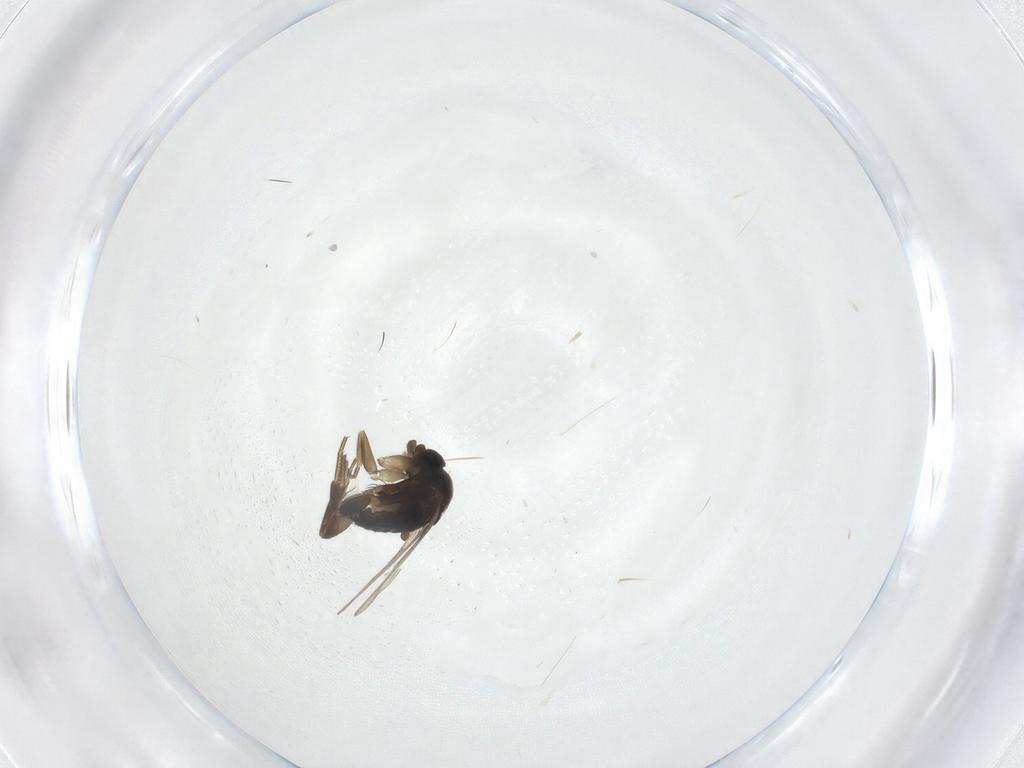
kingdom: Animalia
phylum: Arthropoda
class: Insecta
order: Diptera
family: Phoridae
